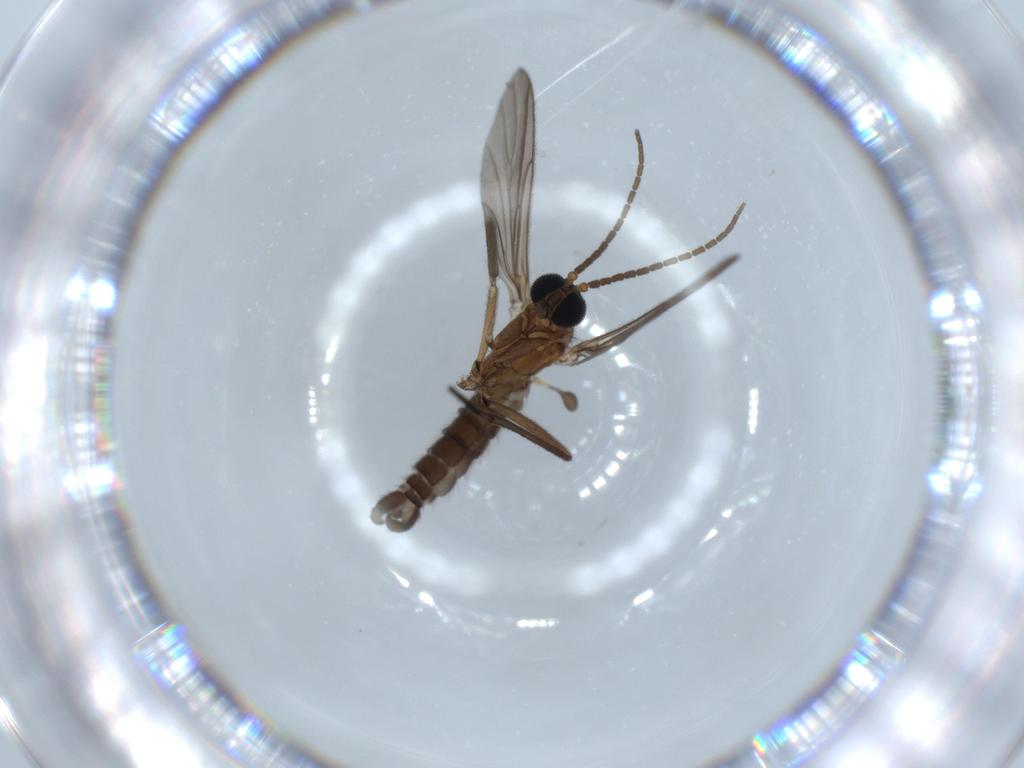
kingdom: Animalia
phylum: Arthropoda
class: Insecta
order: Diptera
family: Sciaridae
